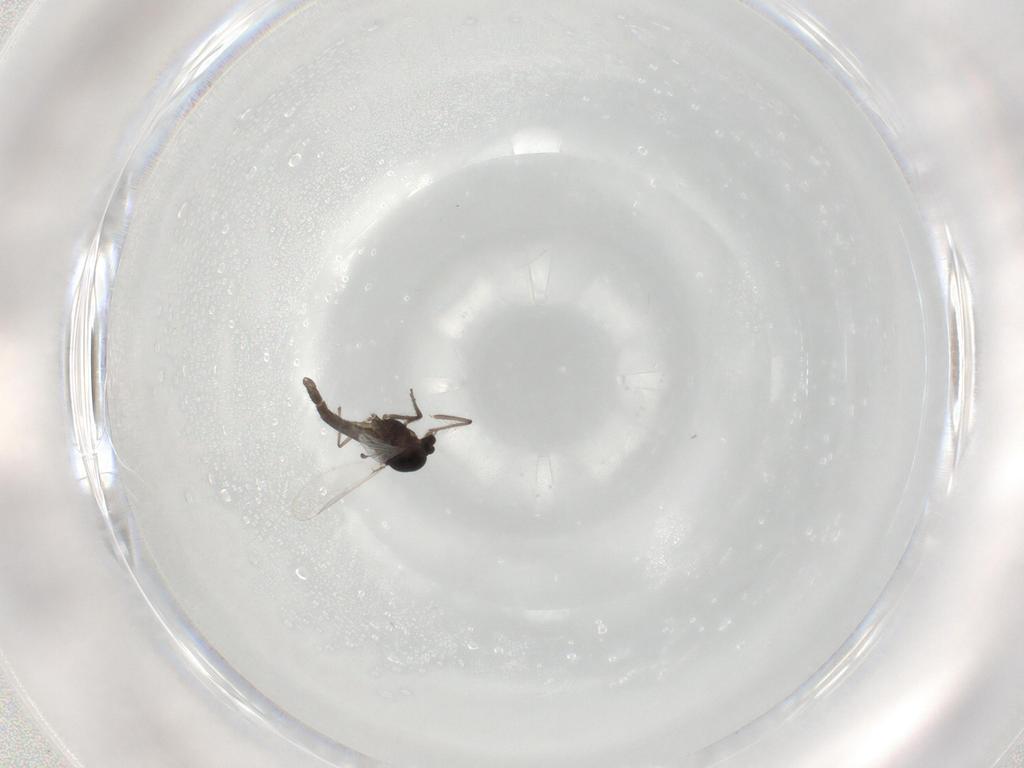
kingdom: Animalia
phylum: Arthropoda
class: Insecta
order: Diptera
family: Chironomidae
